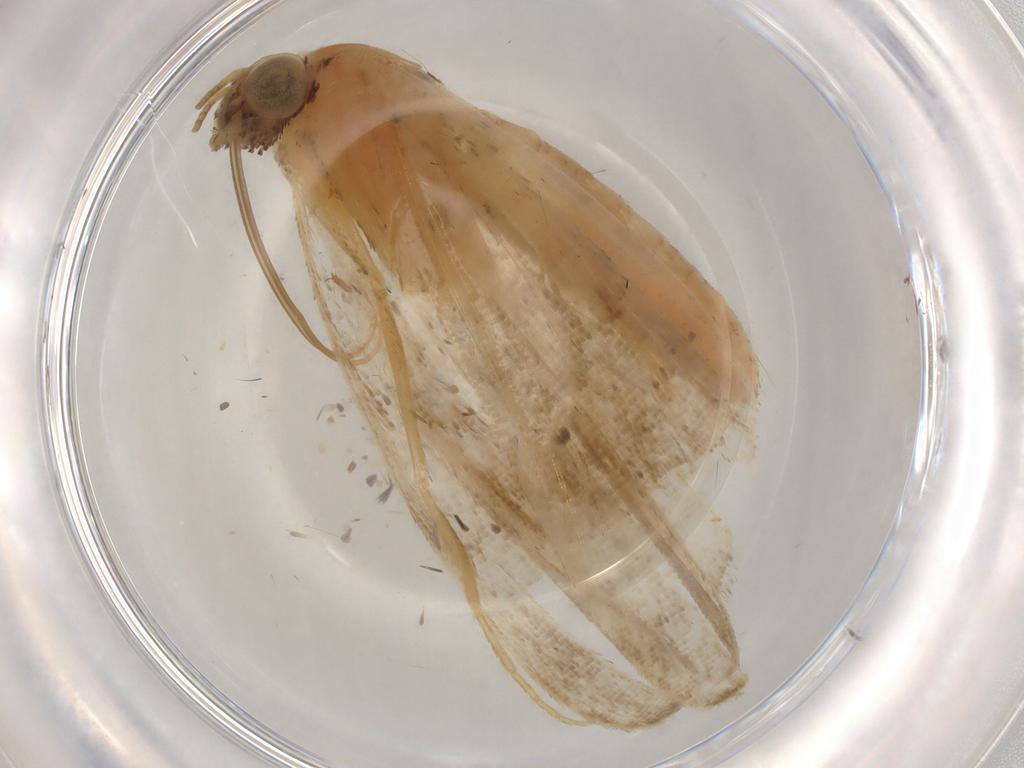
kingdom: Animalia
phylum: Arthropoda
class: Insecta
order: Lepidoptera
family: Geometridae
